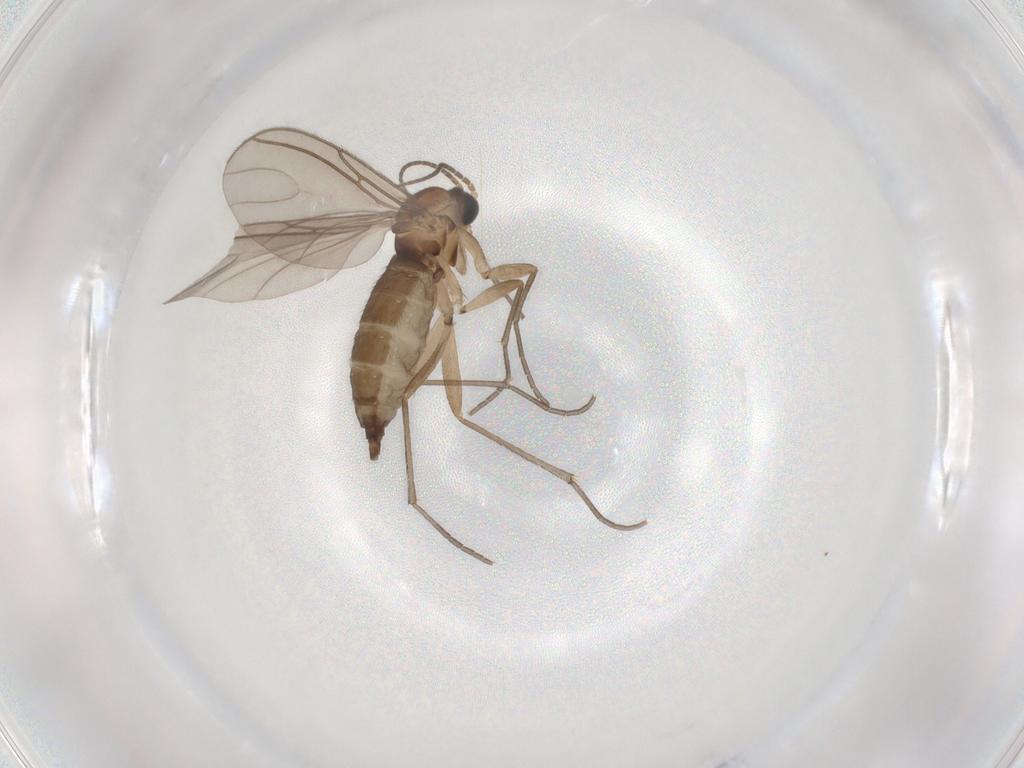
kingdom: Animalia
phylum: Arthropoda
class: Insecta
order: Diptera
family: Sciaridae
